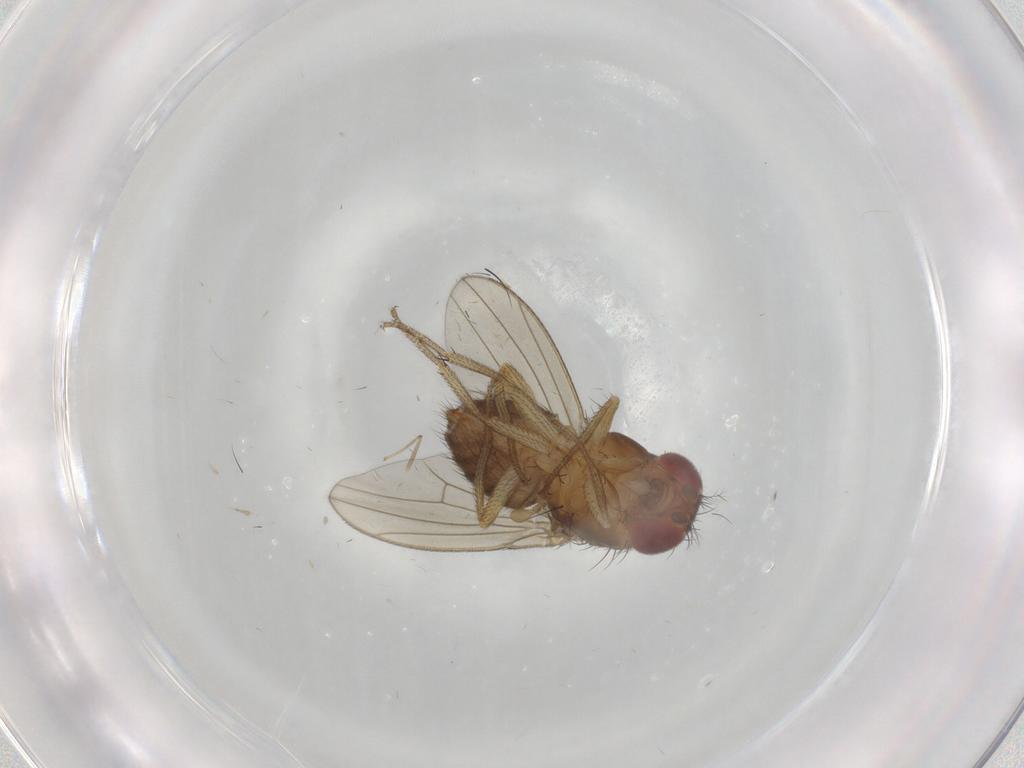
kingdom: Animalia
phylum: Arthropoda
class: Insecta
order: Diptera
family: Drosophilidae
